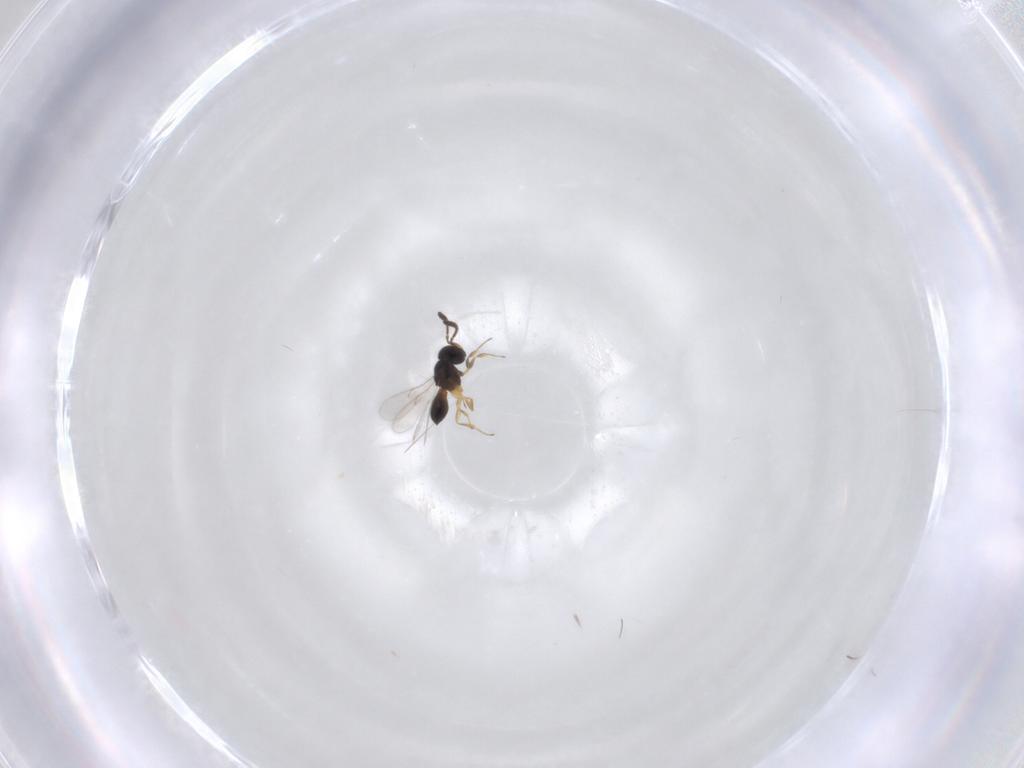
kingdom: Animalia
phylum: Arthropoda
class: Insecta
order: Hymenoptera
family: Scelionidae
